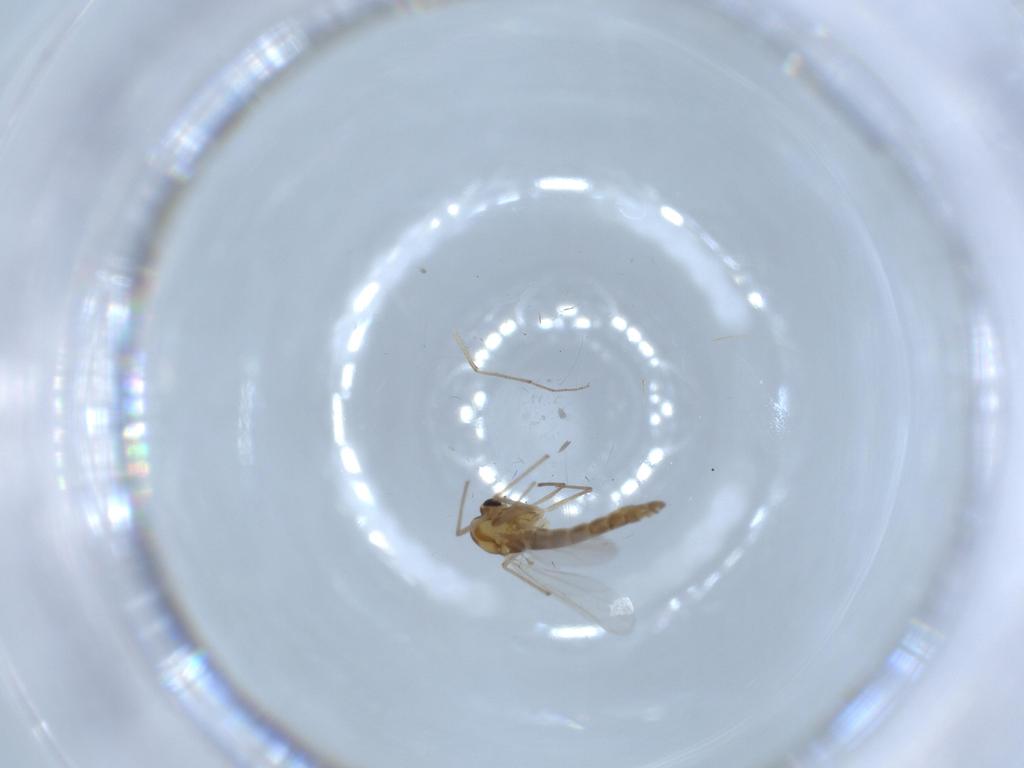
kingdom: Animalia
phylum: Arthropoda
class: Insecta
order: Diptera
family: Chironomidae
